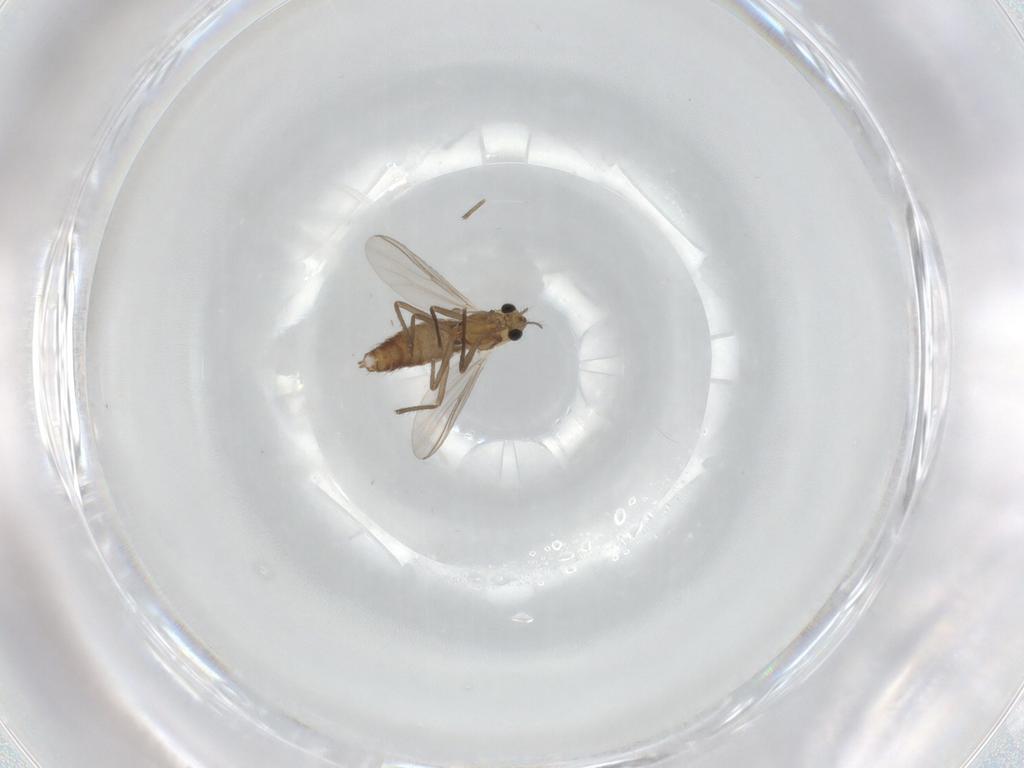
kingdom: Animalia
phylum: Arthropoda
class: Insecta
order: Diptera
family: Chironomidae
